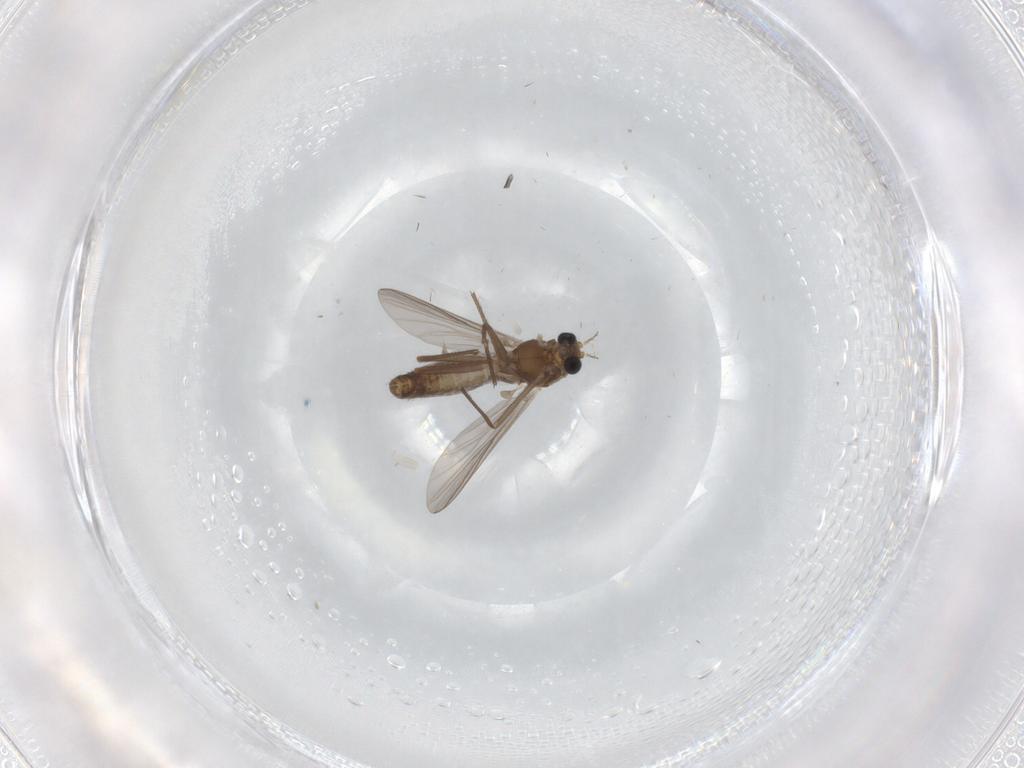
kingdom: Animalia
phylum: Arthropoda
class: Insecta
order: Diptera
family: Chironomidae
